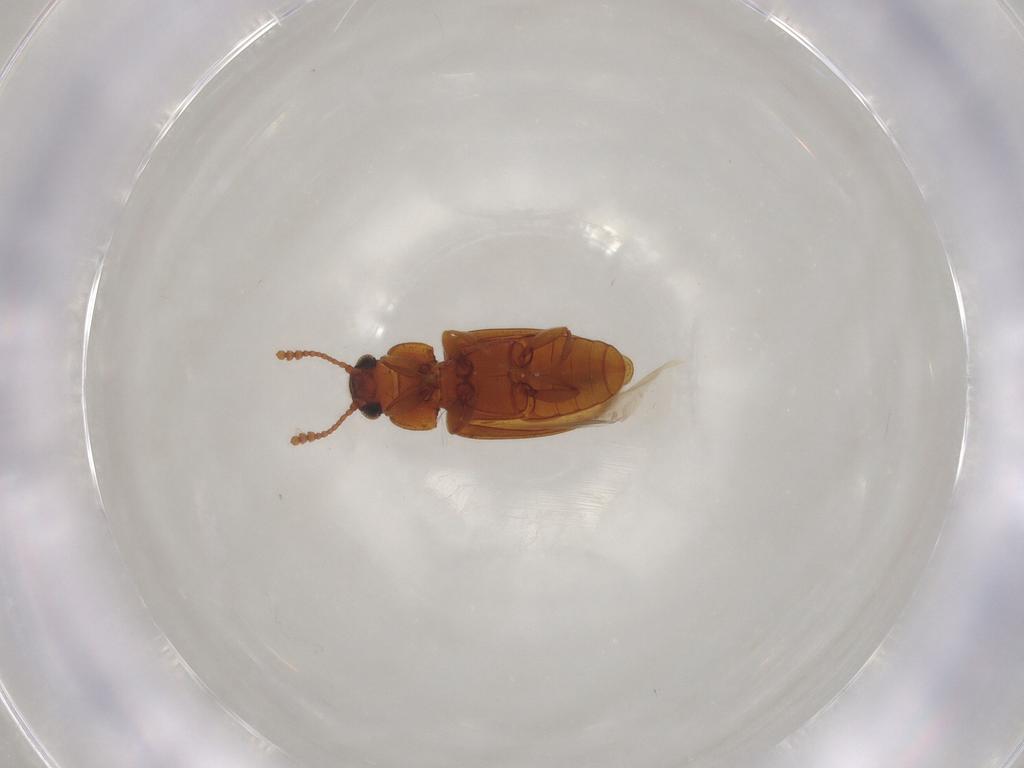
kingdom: Animalia
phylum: Arthropoda
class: Insecta
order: Coleoptera
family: Erotylidae
